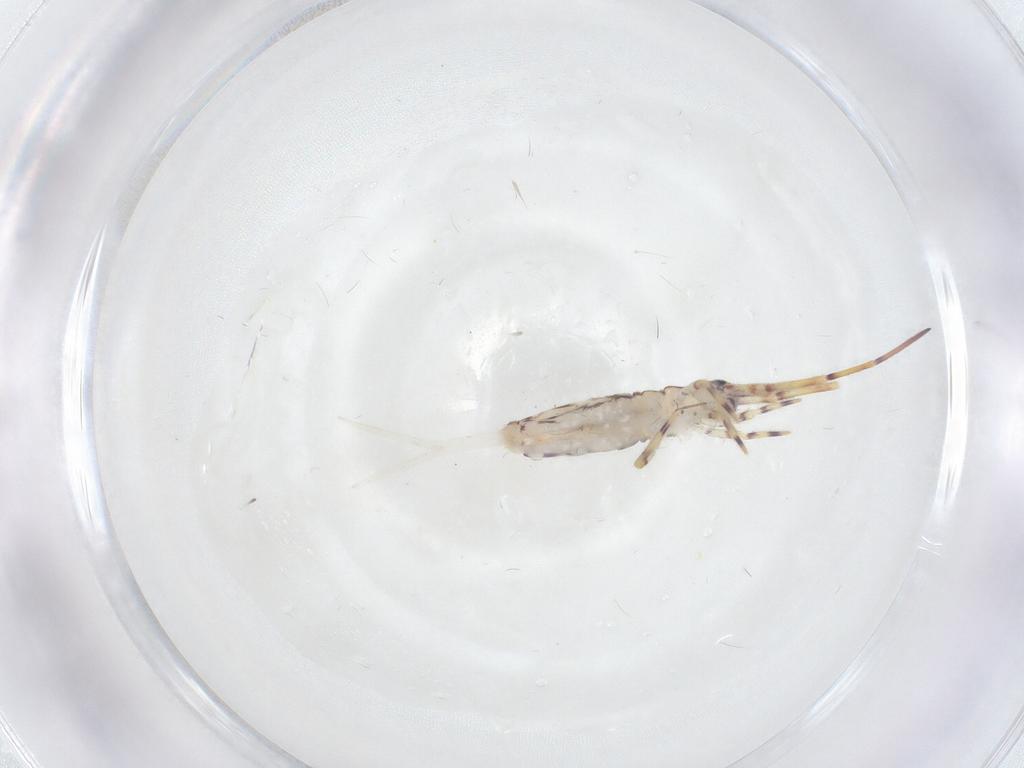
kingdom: Animalia
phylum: Arthropoda
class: Collembola
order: Entomobryomorpha
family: Entomobryidae
